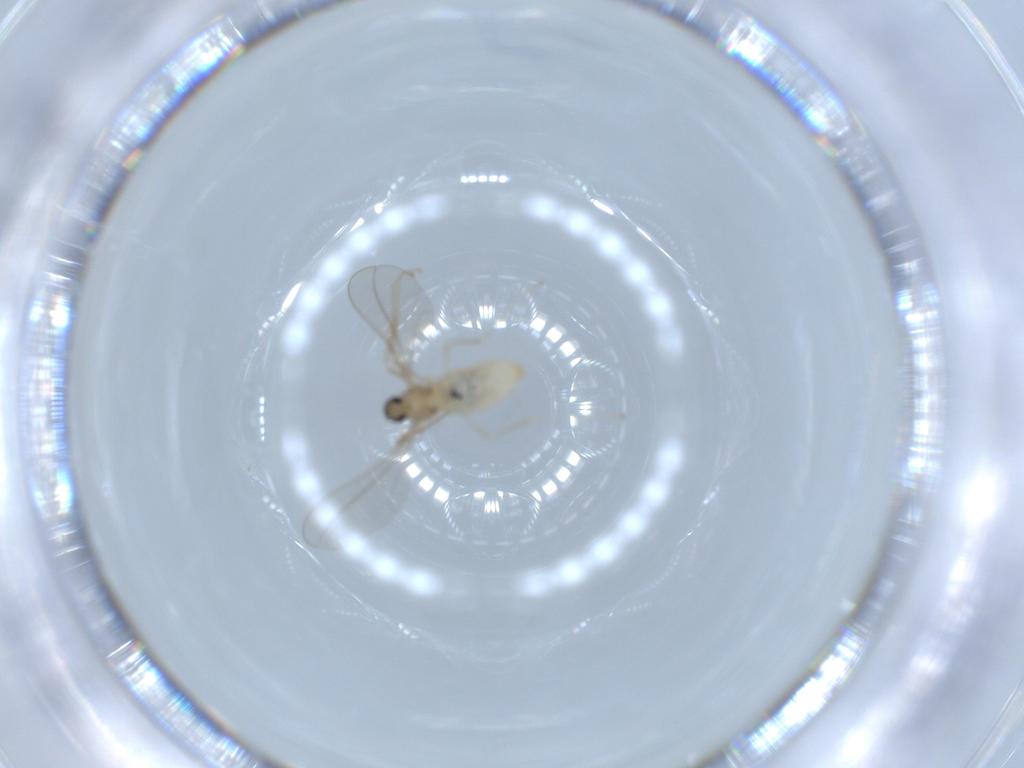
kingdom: Animalia
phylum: Arthropoda
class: Insecta
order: Diptera
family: Cecidomyiidae
